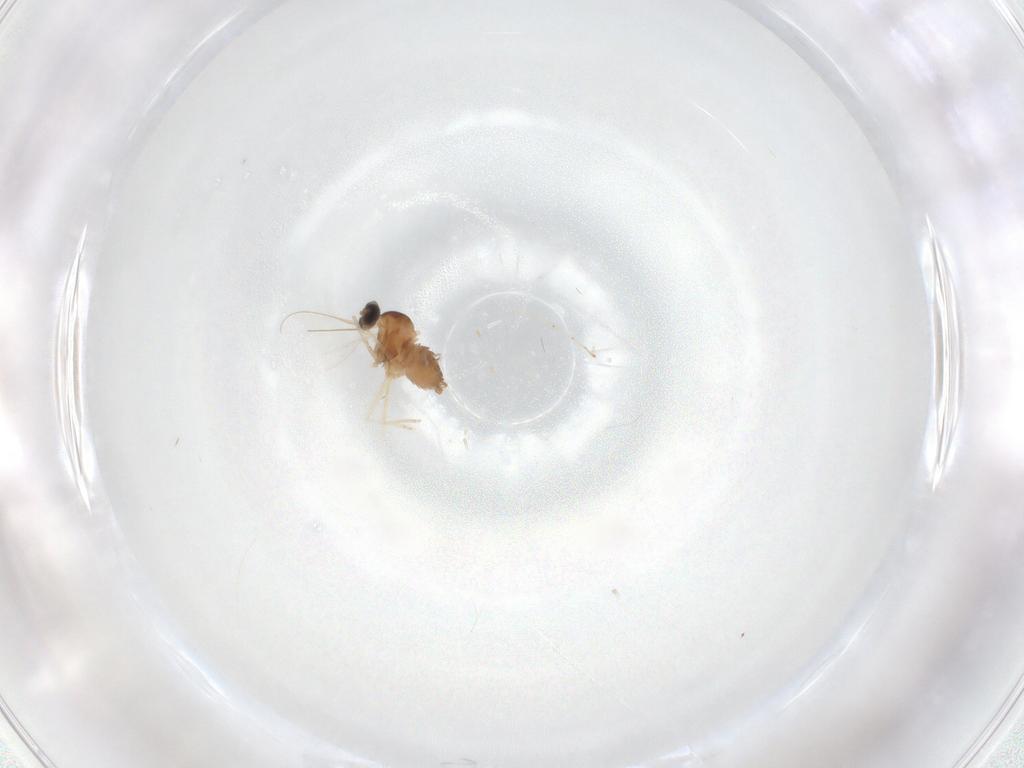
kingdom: Animalia
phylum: Arthropoda
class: Insecta
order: Diptera
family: Cecidomyiidae
